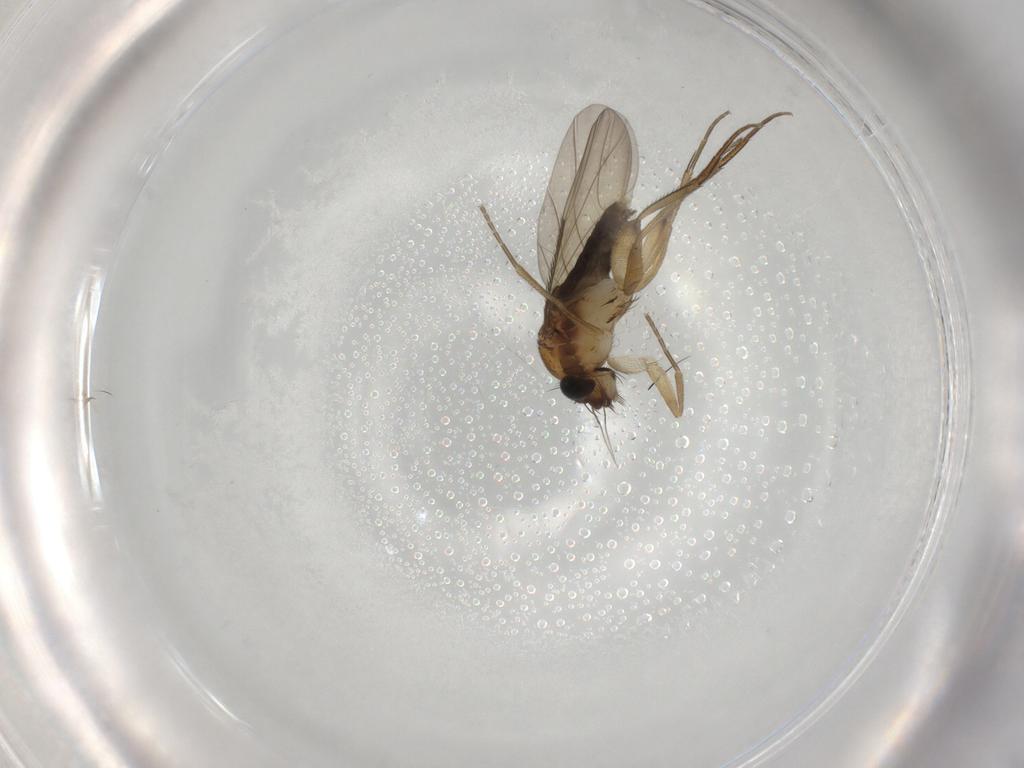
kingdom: Animalia
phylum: Arthropoda
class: Insecta
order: Diptera
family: Phoridae
